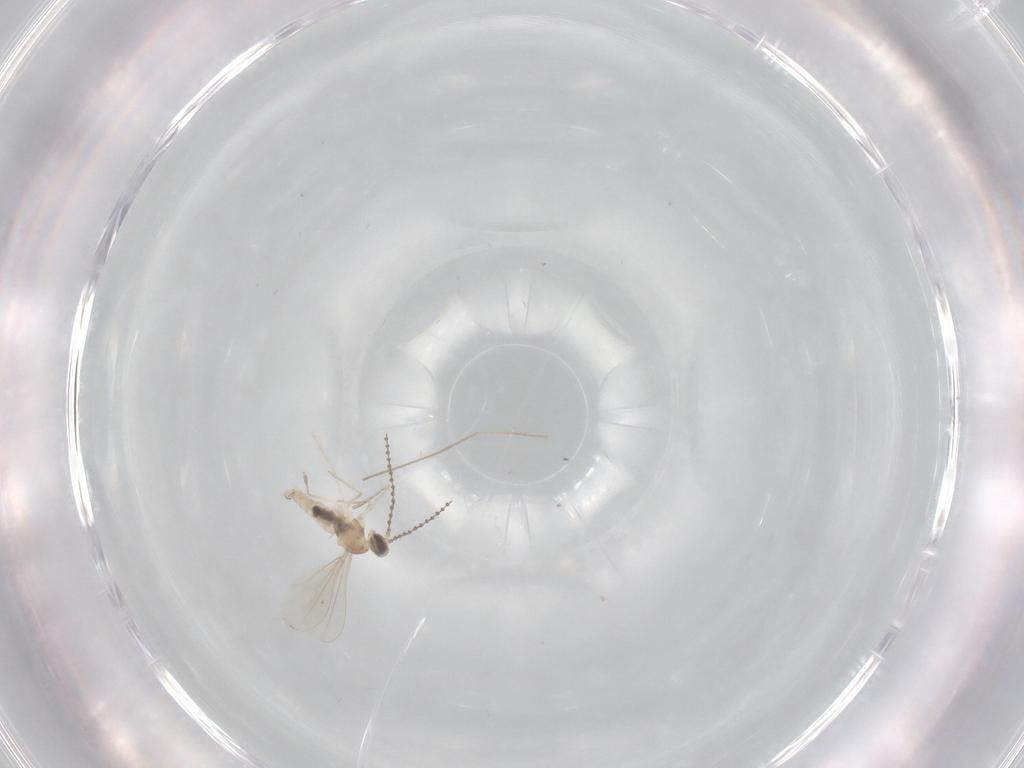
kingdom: Animalia
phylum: Arthropoda
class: Insecta
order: Diptera
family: Cecidomyiidae
